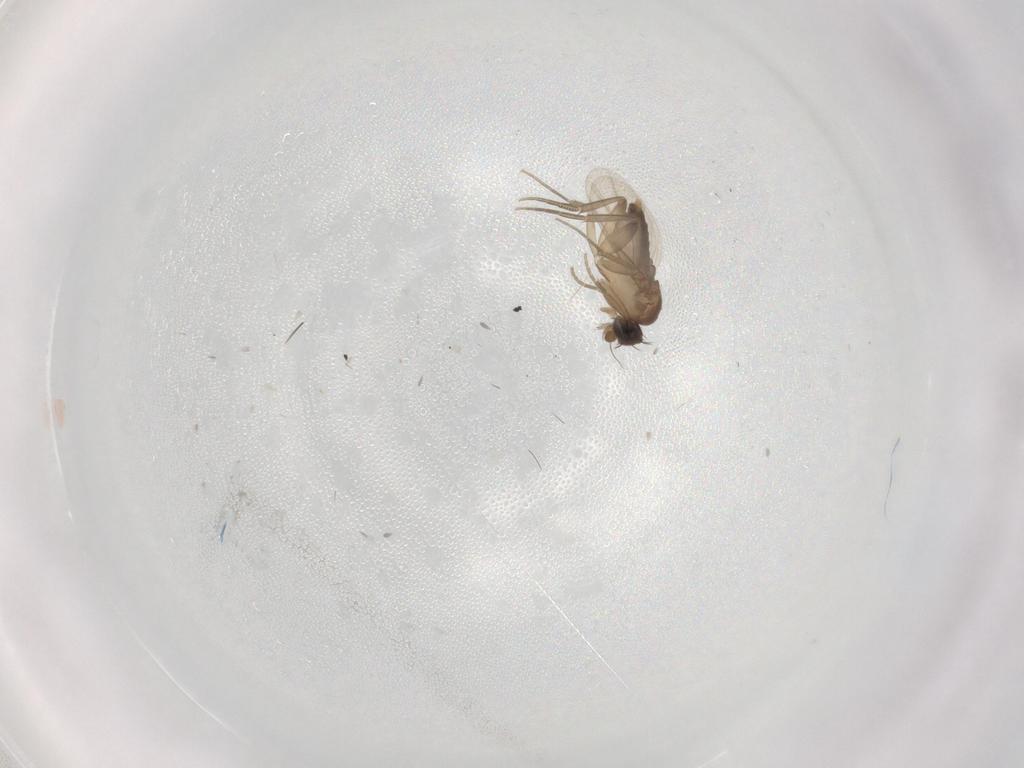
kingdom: Animalia
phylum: Arthropoda
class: Insecta
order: Diptera
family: Phoridae
